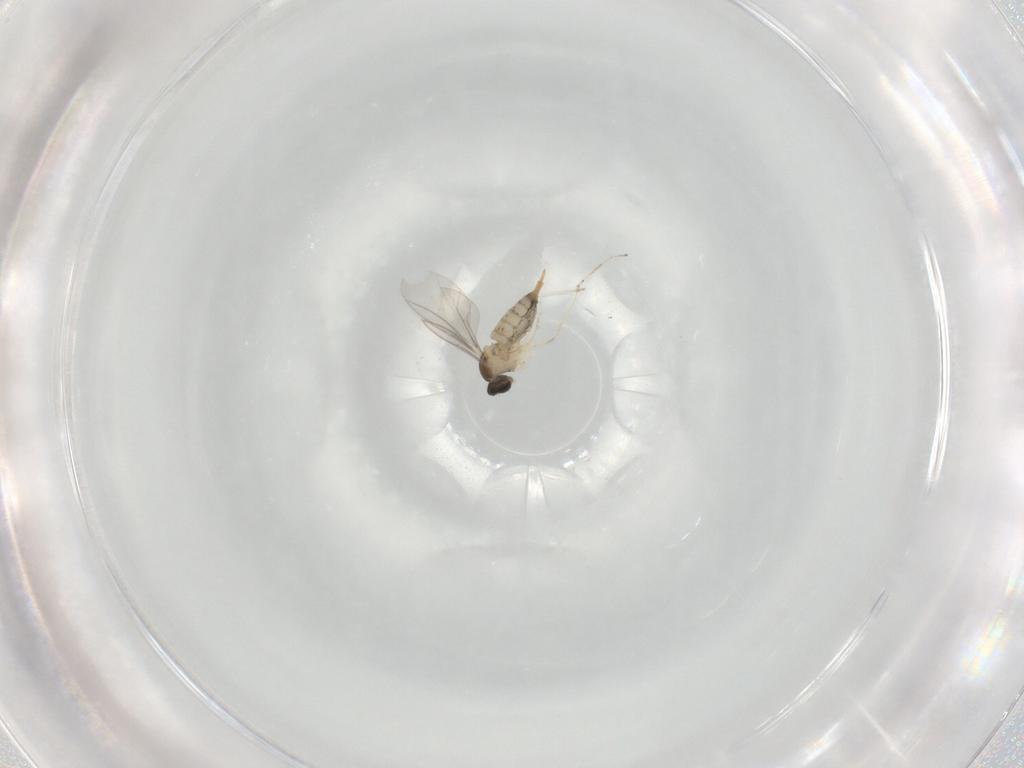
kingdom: Animalia
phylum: Arthropoda
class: Insecta
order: Diptera
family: Cecidomyiidae
